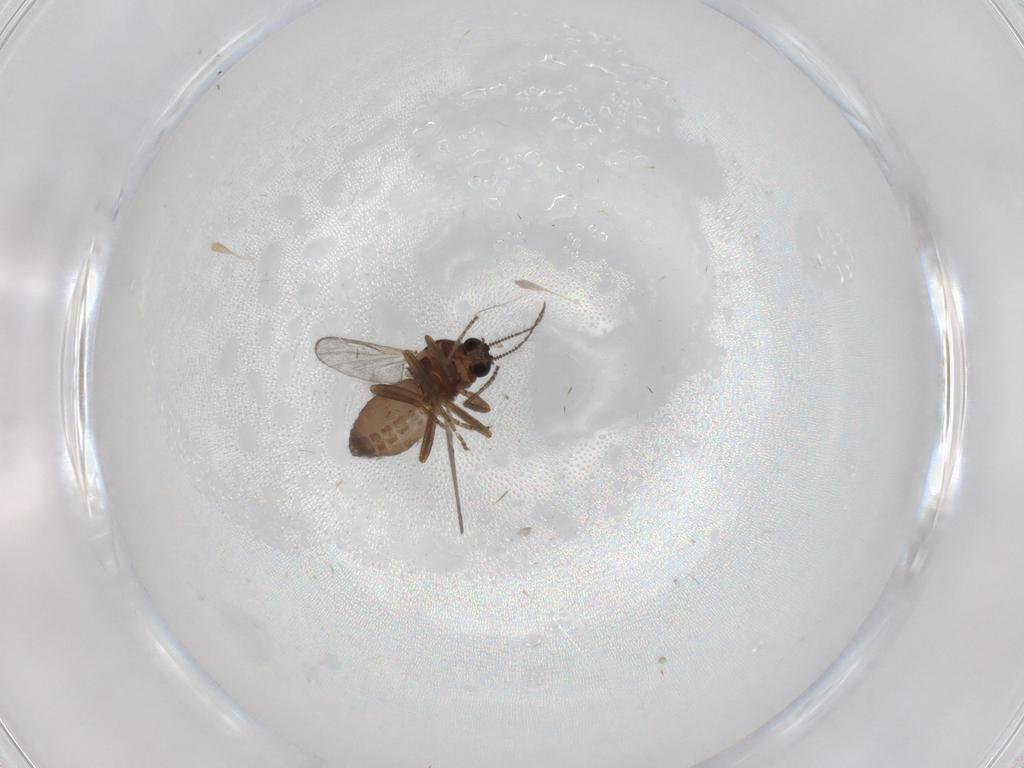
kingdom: Animalia
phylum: Arthropoda
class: Insecta
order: Diptera
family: Ceratopogonidae
